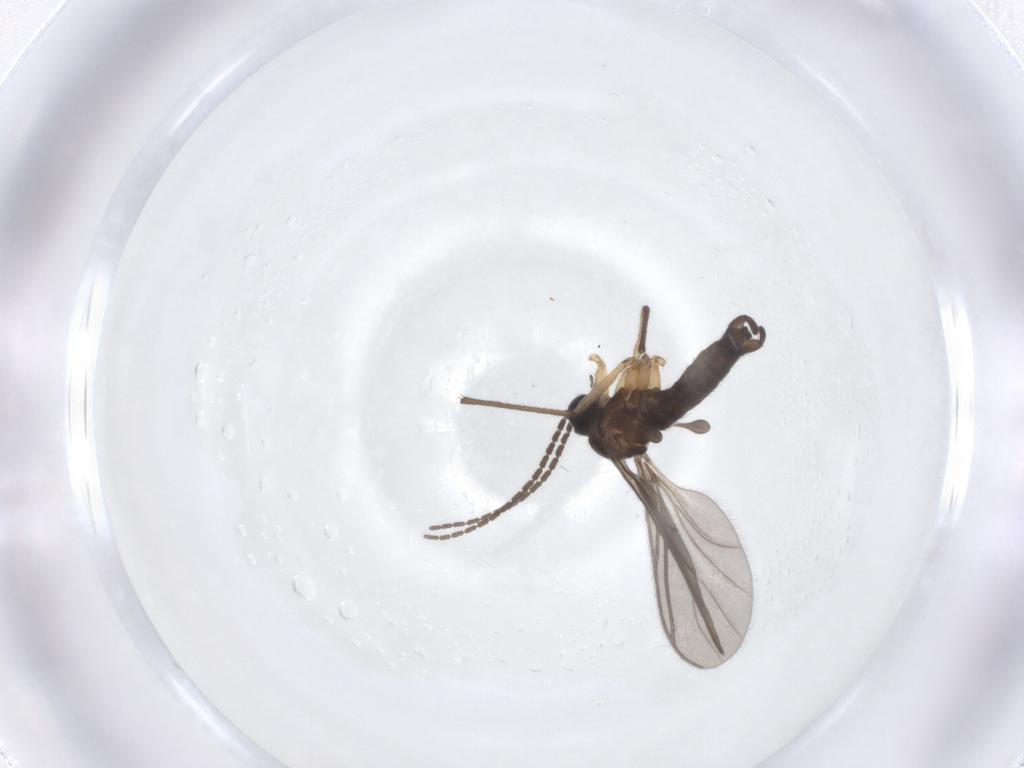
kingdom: Animalia
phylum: Arthropoda
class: Insecta
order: Diptera
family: Sciaridae
